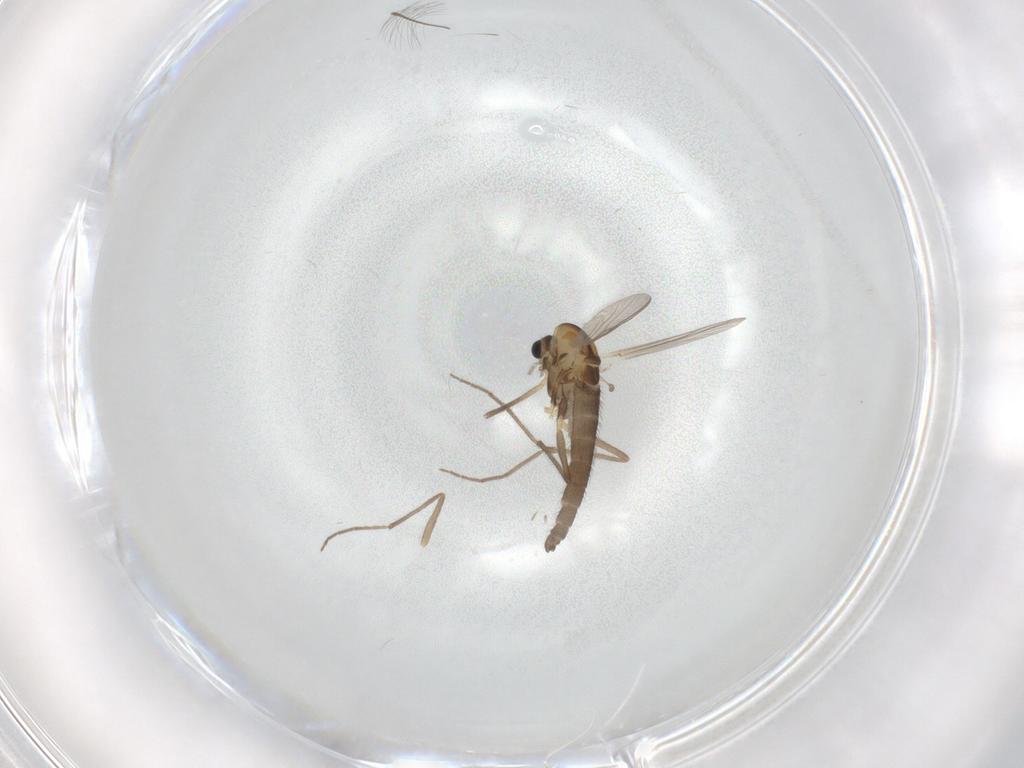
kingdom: Animalia
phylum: Arthropoda
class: Insecta
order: Diptera
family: Chironomidae
